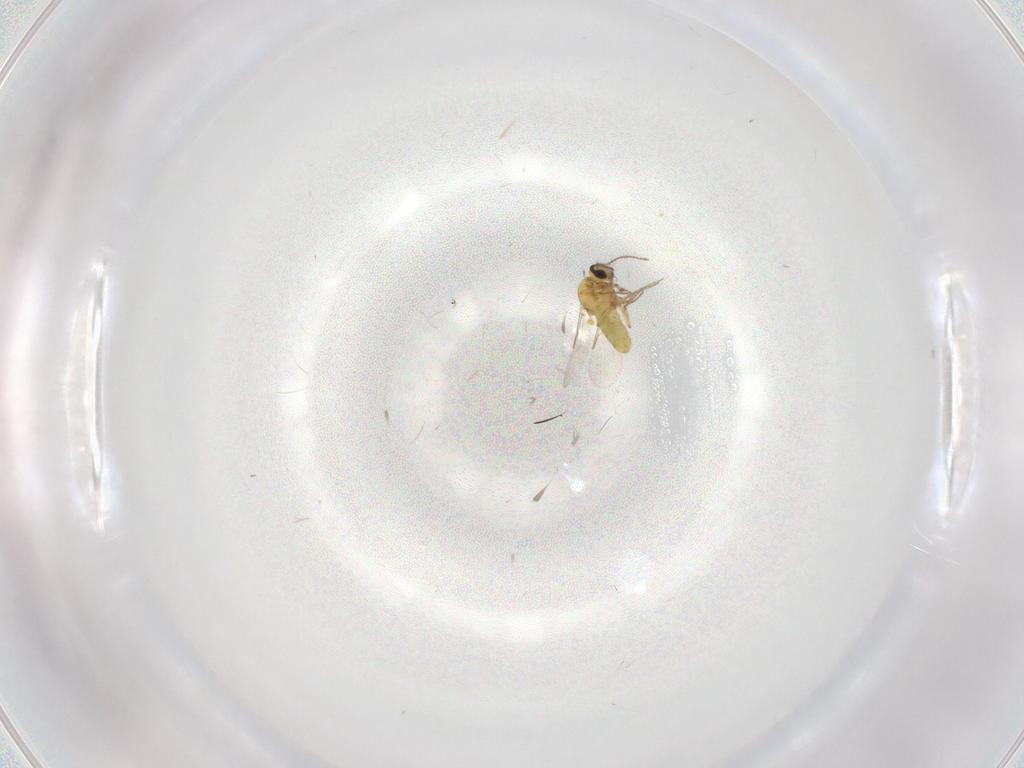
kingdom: Animalia
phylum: Arthropoda
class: Insecta
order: Diptera
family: Ceratopogonidae
